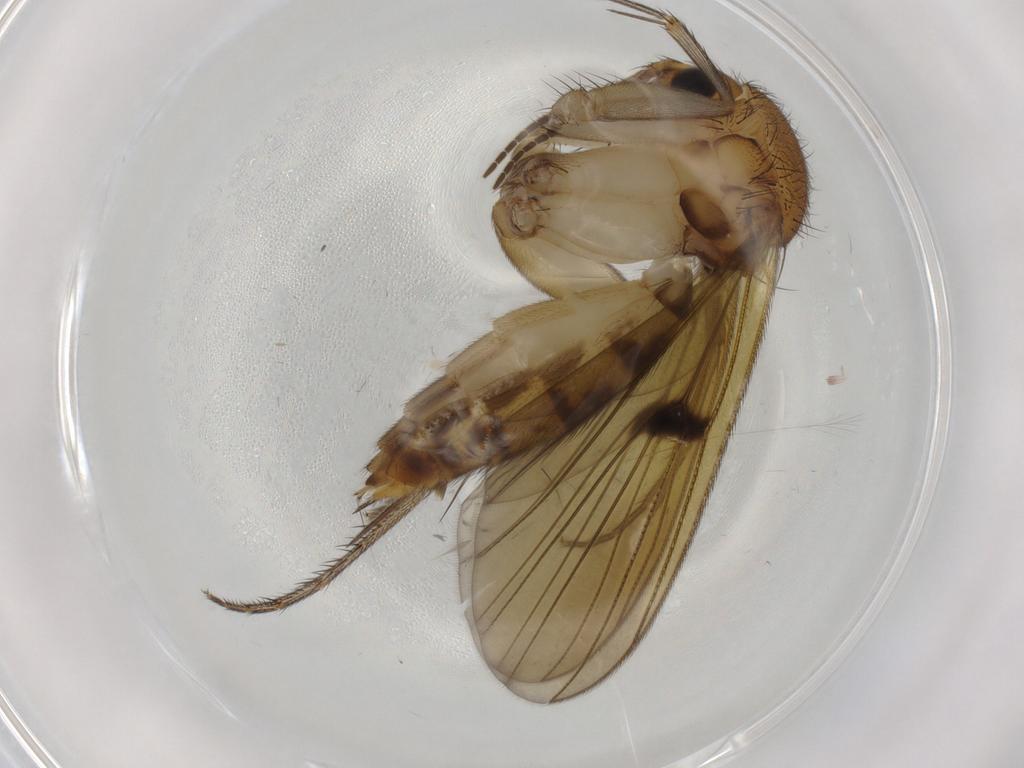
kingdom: Animalia
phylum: Arthropoda
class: Insecta
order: Diptera
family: Mycetophilidae
